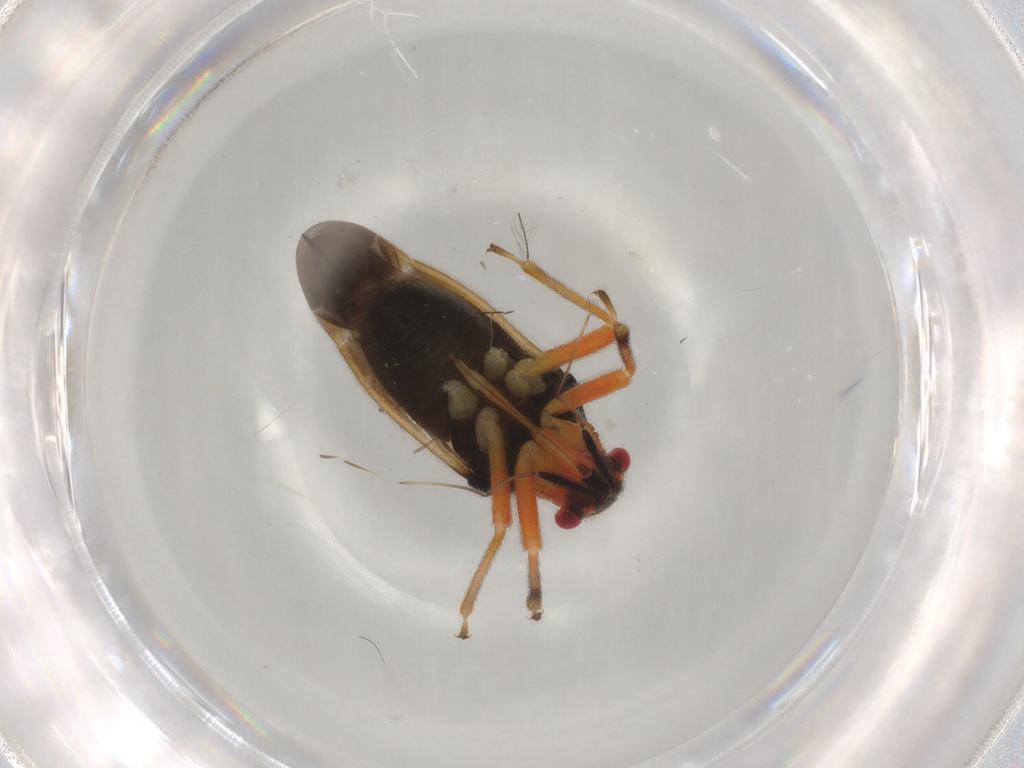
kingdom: Animalia
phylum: Arthropoda
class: Insecta
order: Hemiptera
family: Miridae
